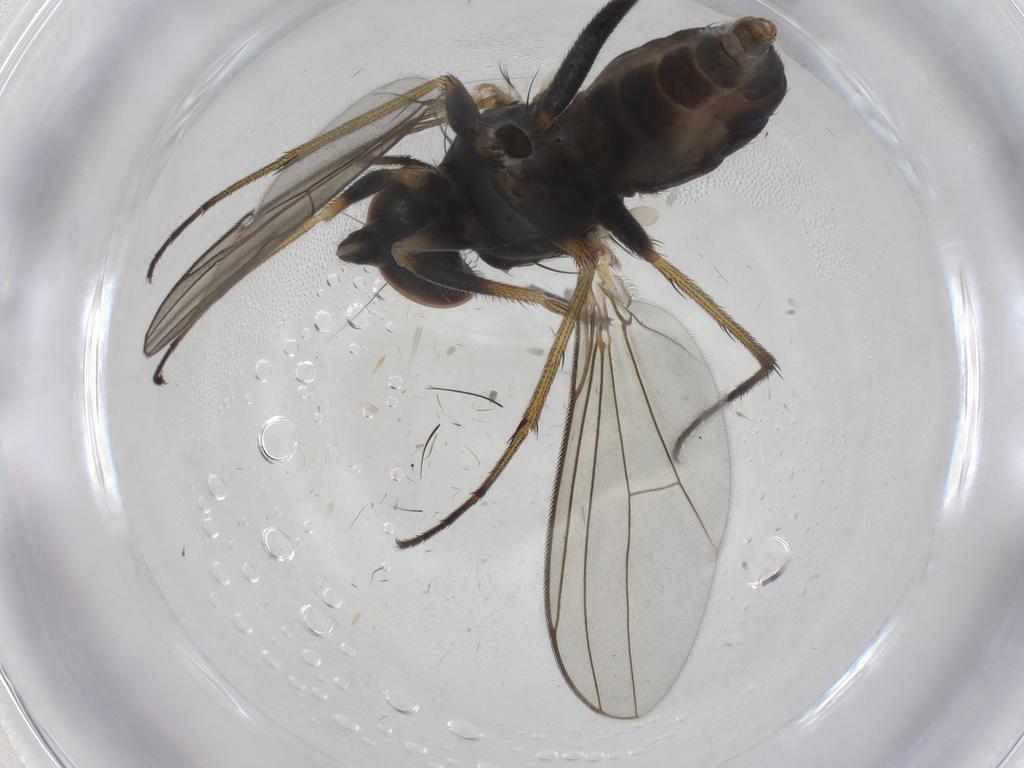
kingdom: Animalia
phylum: Arthropoda
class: Insecta
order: Diptera
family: Dolichopodidae
